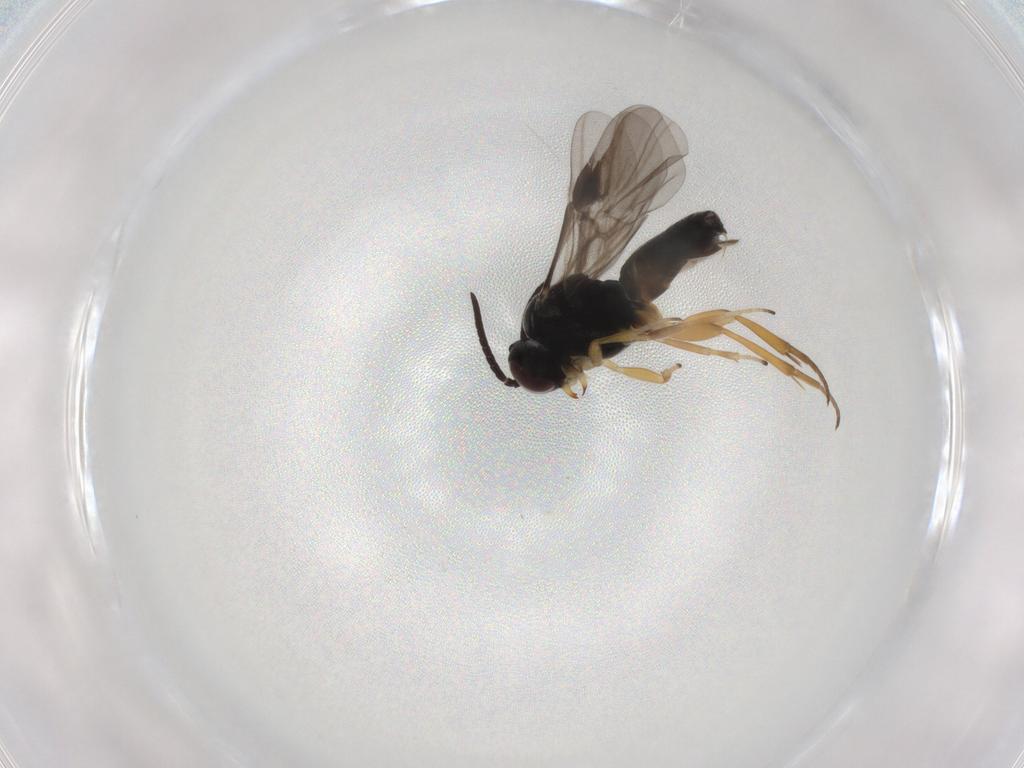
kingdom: Animalia
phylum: Arthropoda
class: Insecta
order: Hymenoptera
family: Braconidae
